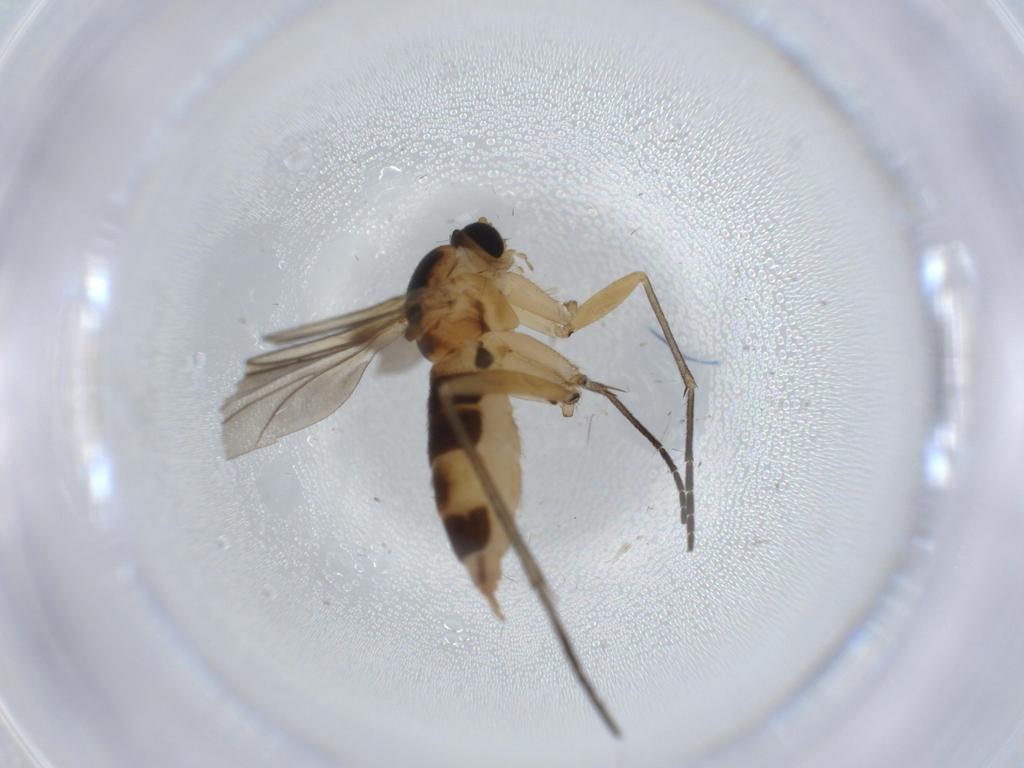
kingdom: Animalia
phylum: Arthropoda
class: Insecta
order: Diptera
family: Sciaridae
